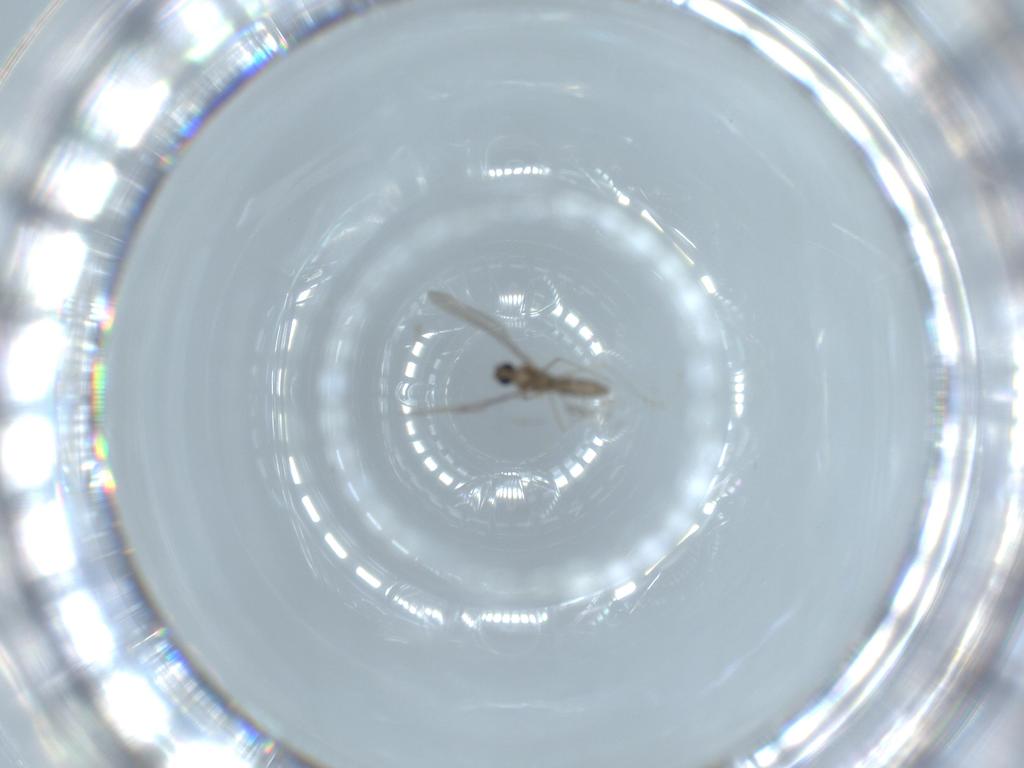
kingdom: Animalia
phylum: Arthropoda
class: Insecta
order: Diptera
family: Cecidomyiidae
